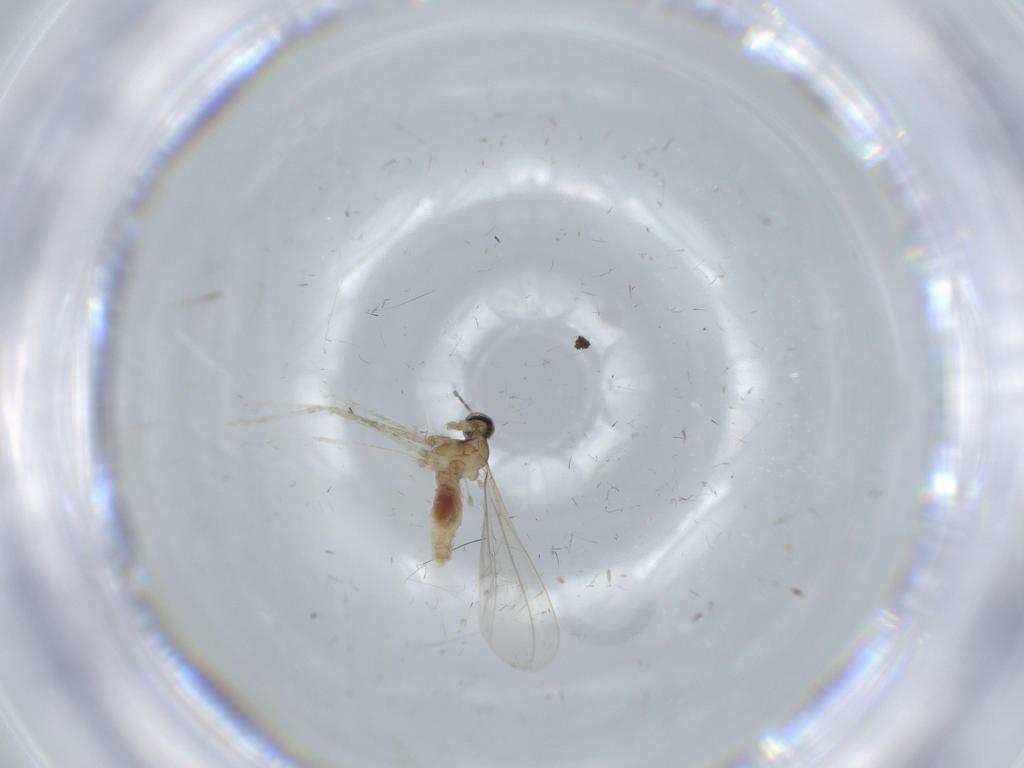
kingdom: Animalia
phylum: Arthropoda
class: Insecta
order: Diptera
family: Cecidomyiidae
